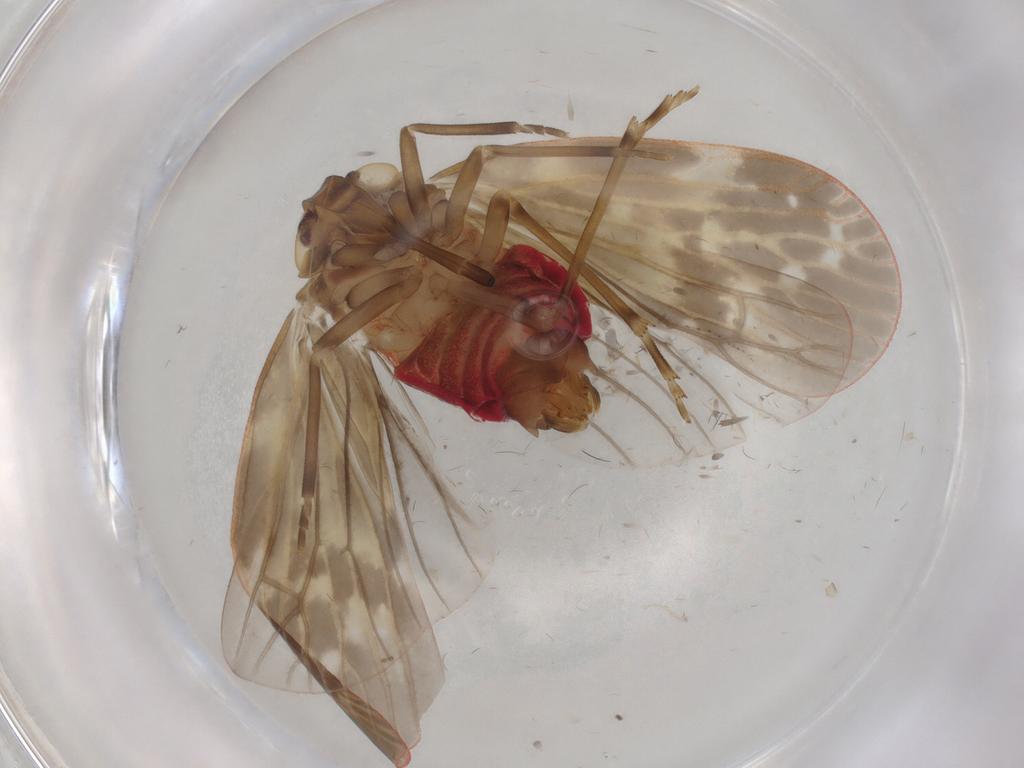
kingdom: Animalia
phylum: Arthropoda
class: Insecta
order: Hemiptera
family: Achilidae
